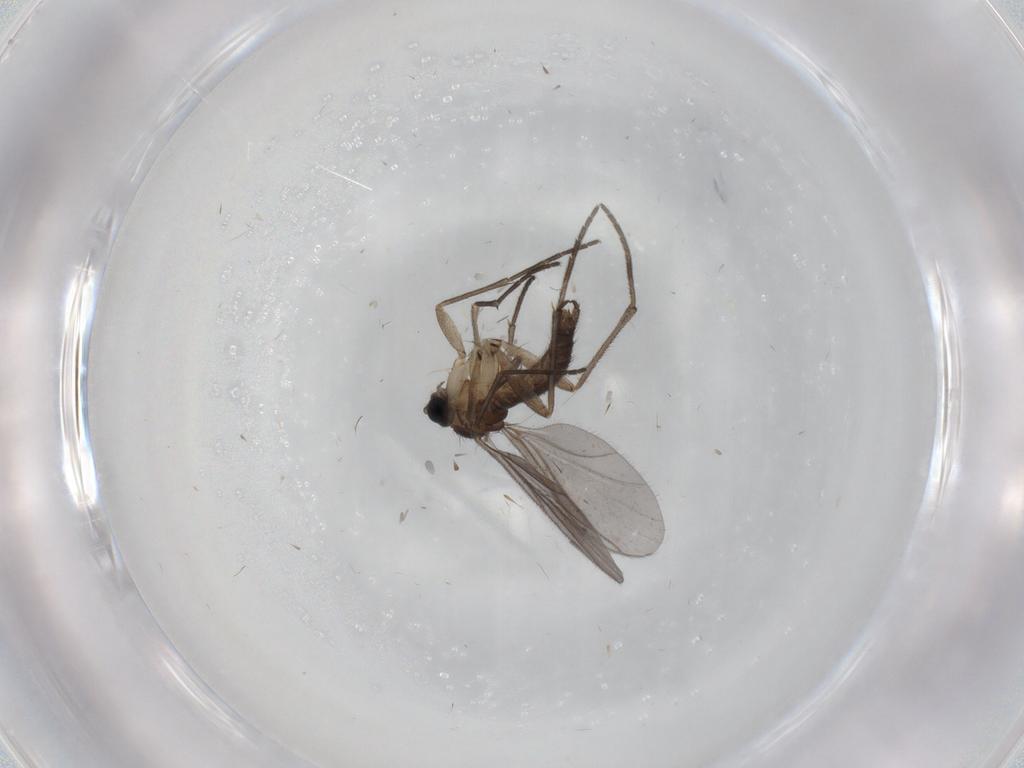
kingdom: Animalia
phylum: Arthropoda
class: Insecta
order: Diptera
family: Sciaridae
